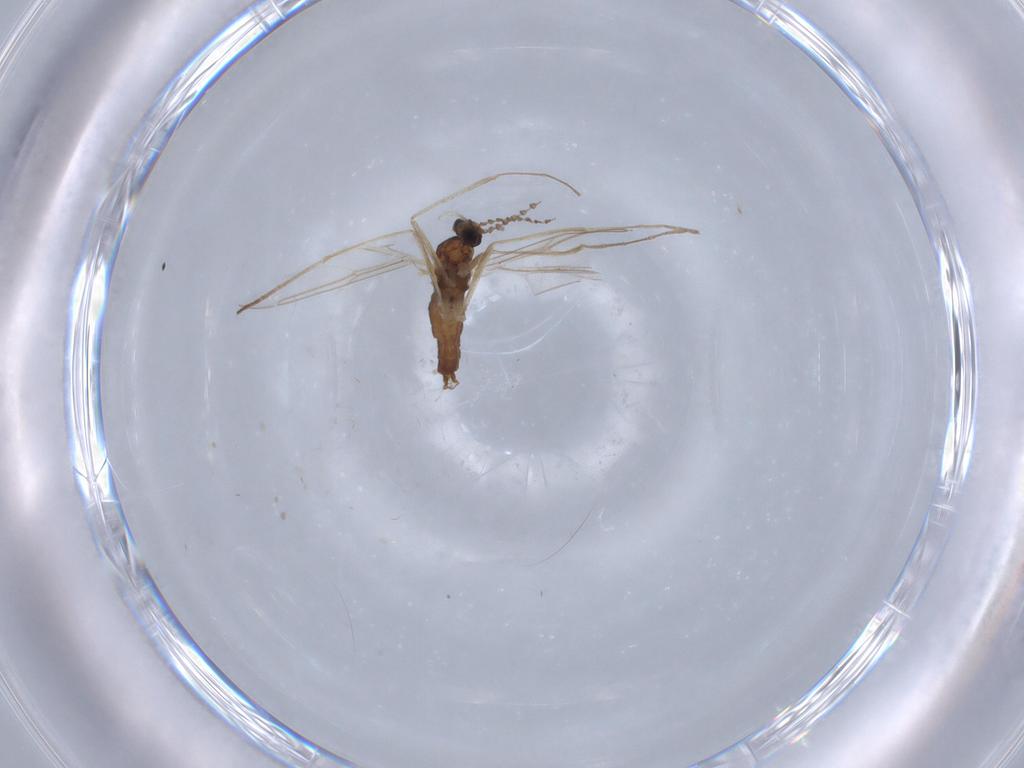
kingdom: Animalia
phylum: Arthropoda
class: Insecta
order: Diptera
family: Cecidomyiidae
